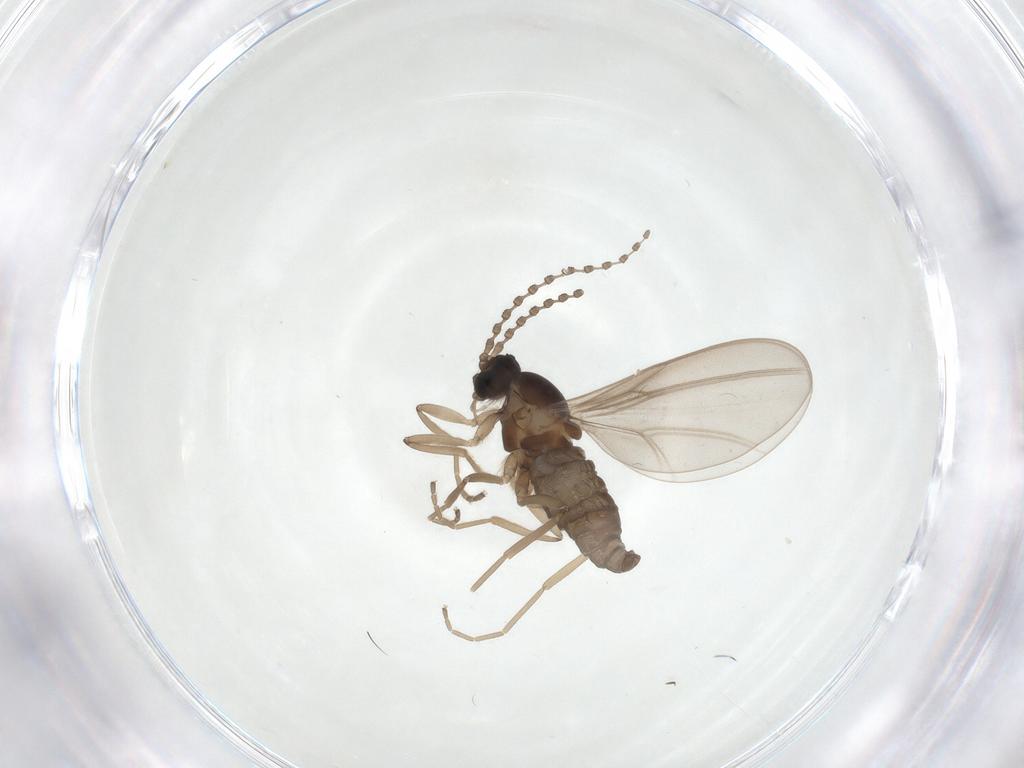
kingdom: Animalia
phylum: Arthropoda
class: Insecta
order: Diptera
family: Cecidomyiidae
